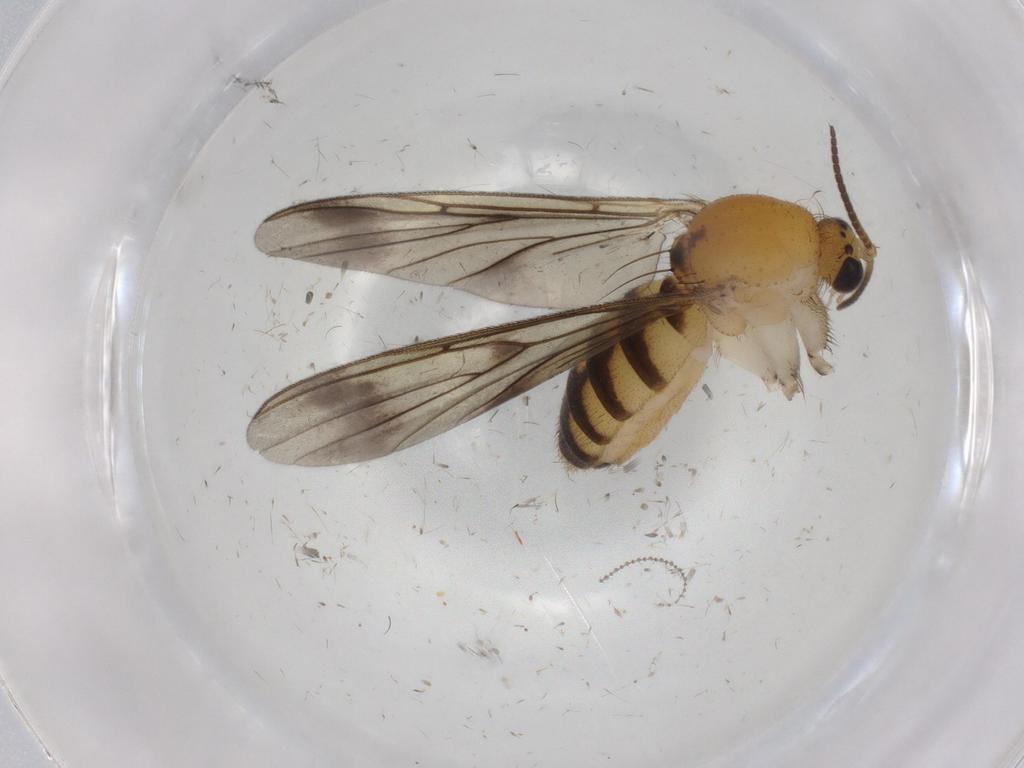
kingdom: Animalia
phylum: Arthropoda
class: Insecta
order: Diptera
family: Mycetophilidae
